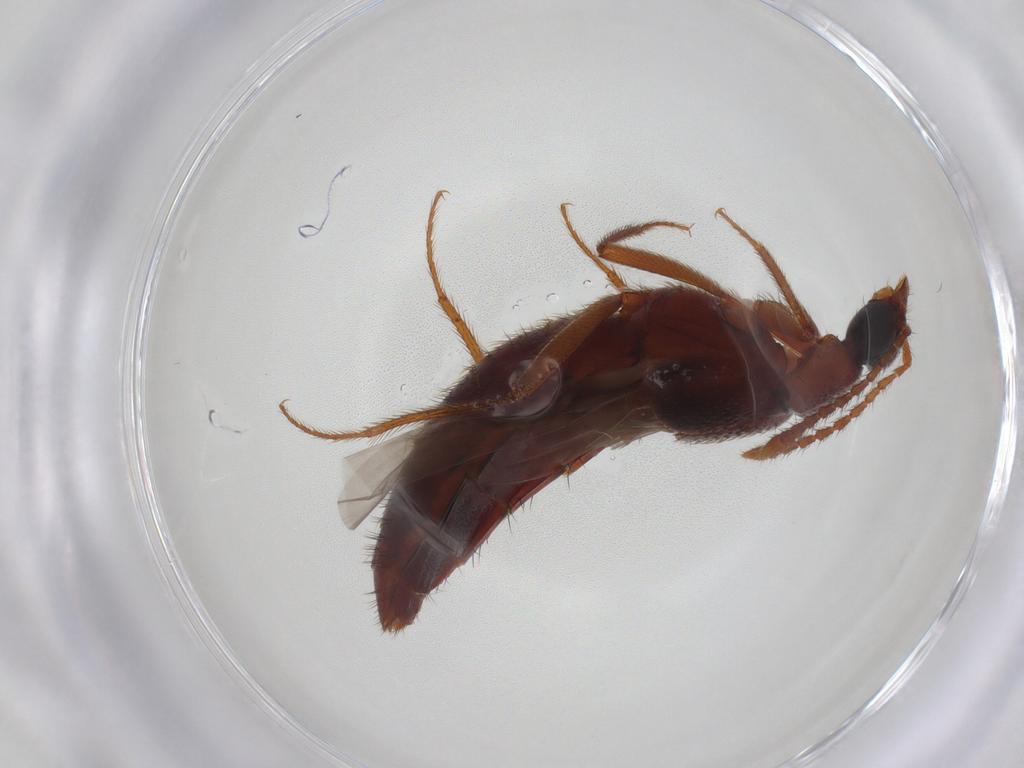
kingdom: Animalia
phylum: Arthropoda
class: Insecta
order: Coleoptera
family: Staphylinidae
